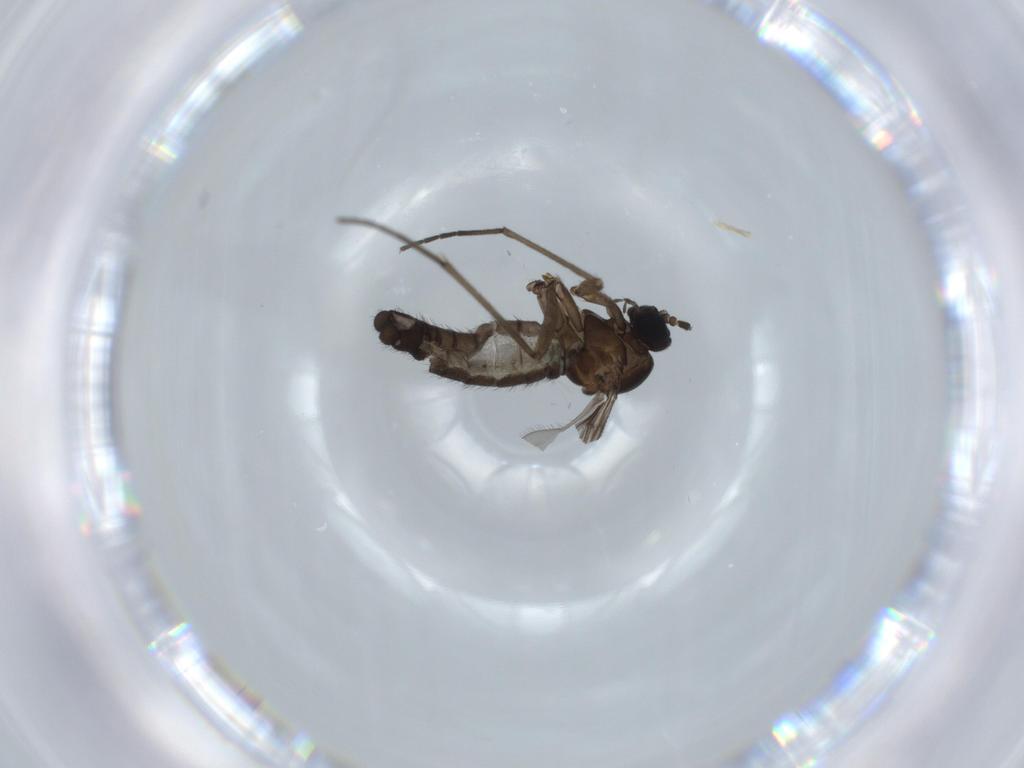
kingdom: Animalia
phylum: Arthropoda
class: Insecta
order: Diptera
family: Sciaridae
